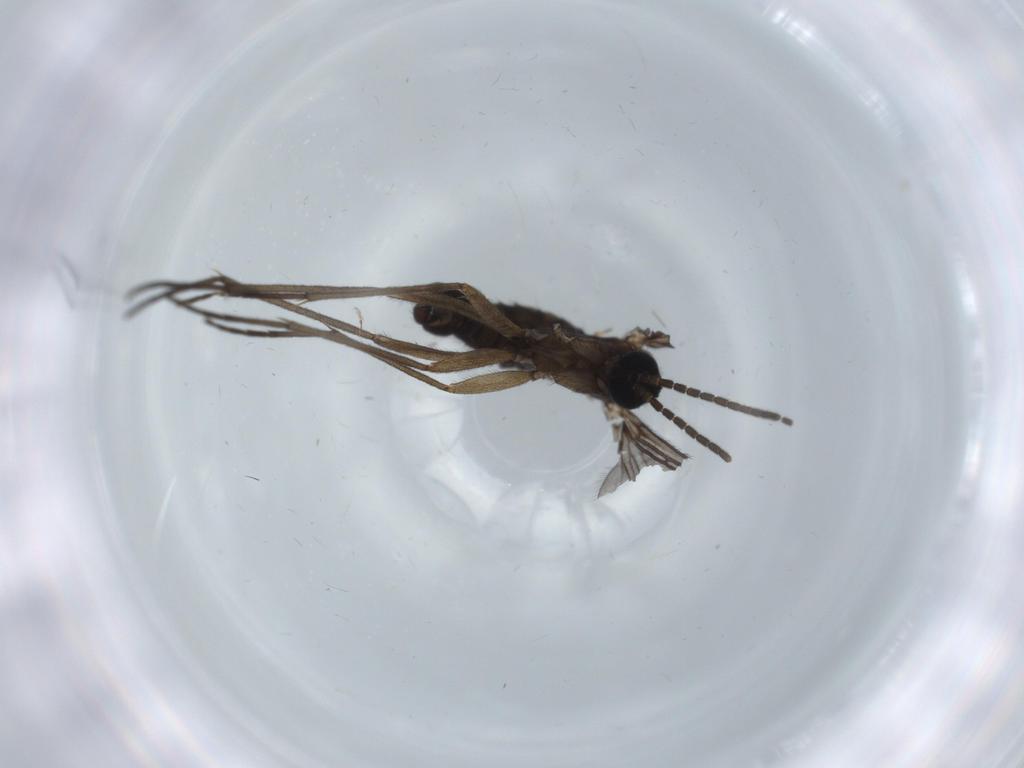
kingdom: Animalia
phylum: Arthropoda
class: Insecta
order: Diptera
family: Sciaridae
